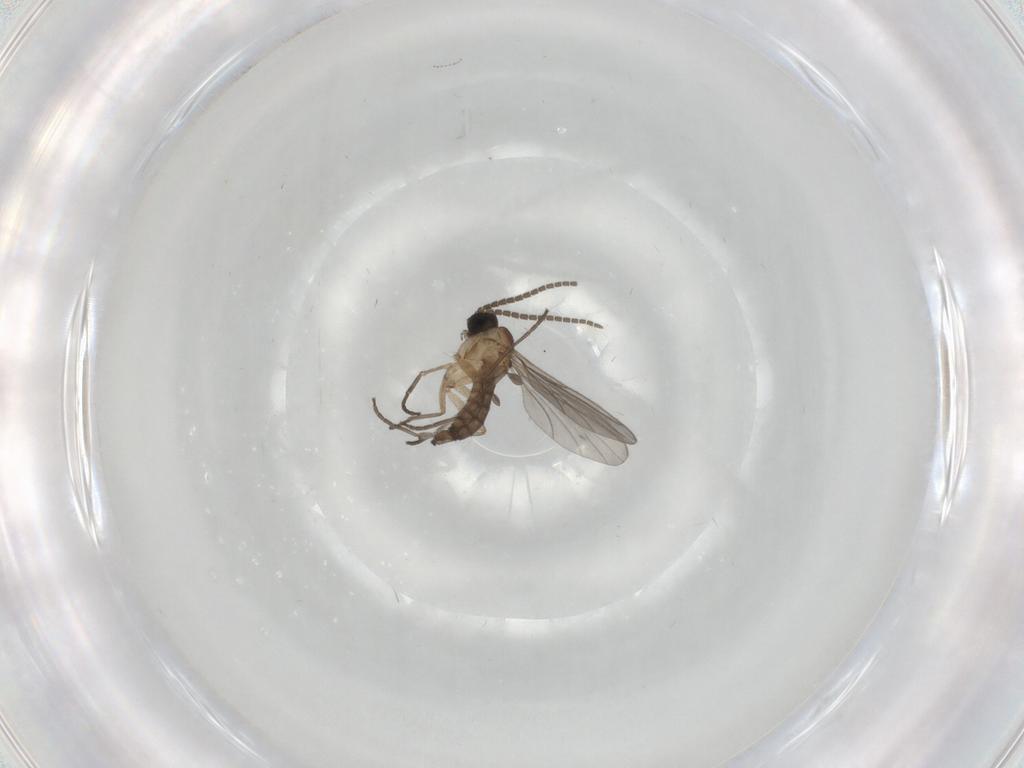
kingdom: Animalia
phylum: Arthropoda
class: Insecta
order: Diptera
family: Sciaridae
